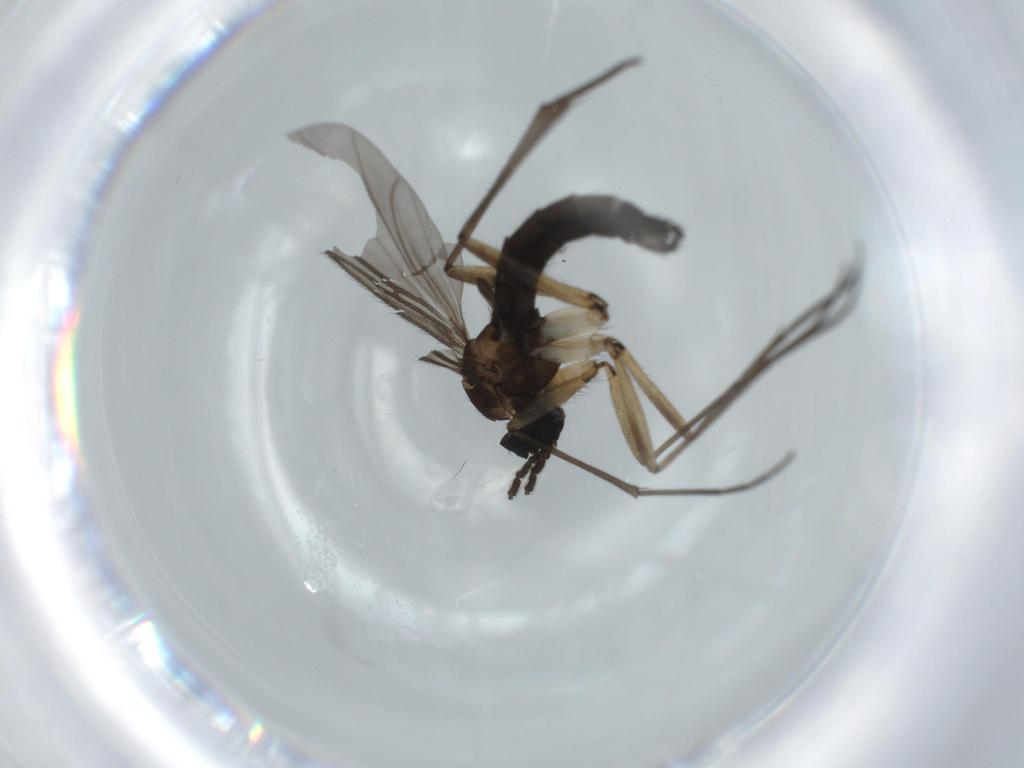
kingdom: Animalia
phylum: Arthropoda
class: Insecta
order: Diptera
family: Sciaridae
